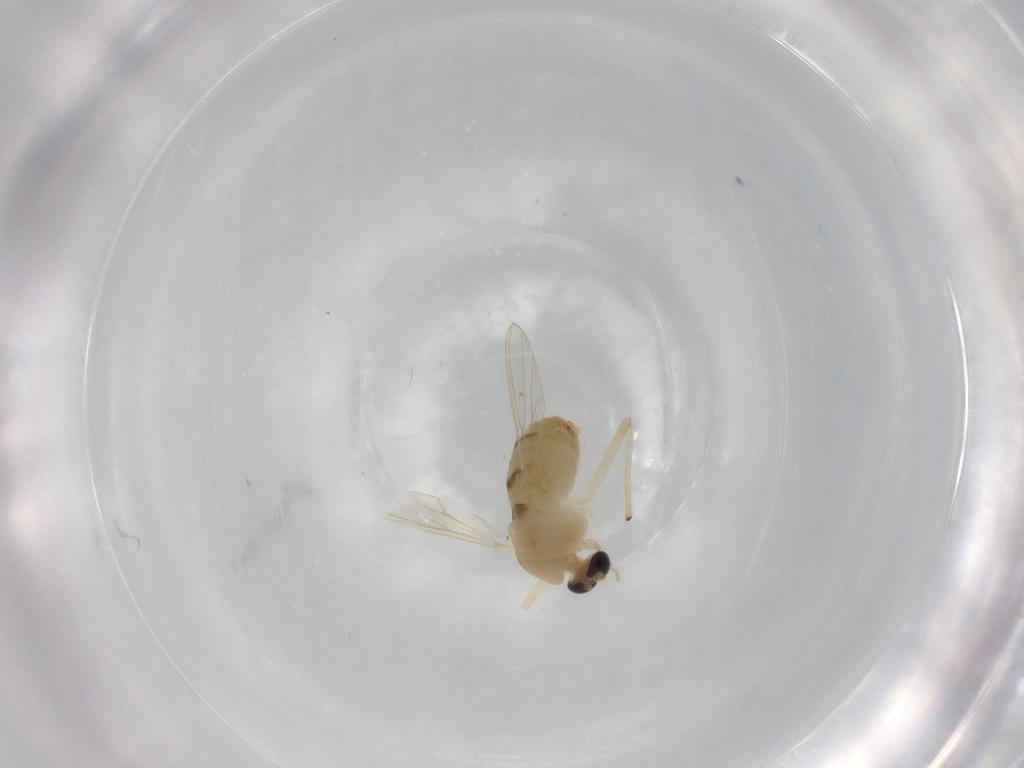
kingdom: Animalia
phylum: Arthropoda
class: Insecta
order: Diptera
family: Chironomidae
